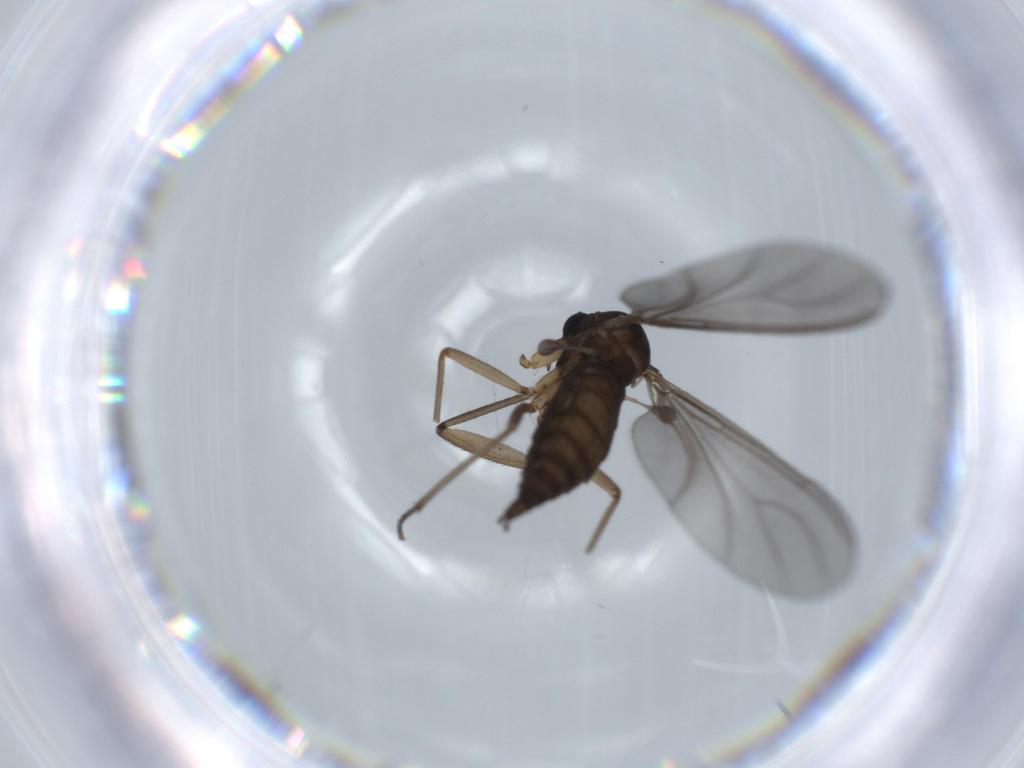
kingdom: Animalia
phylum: Arthropoda
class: Insecta
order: Diptera
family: Sciaridae
